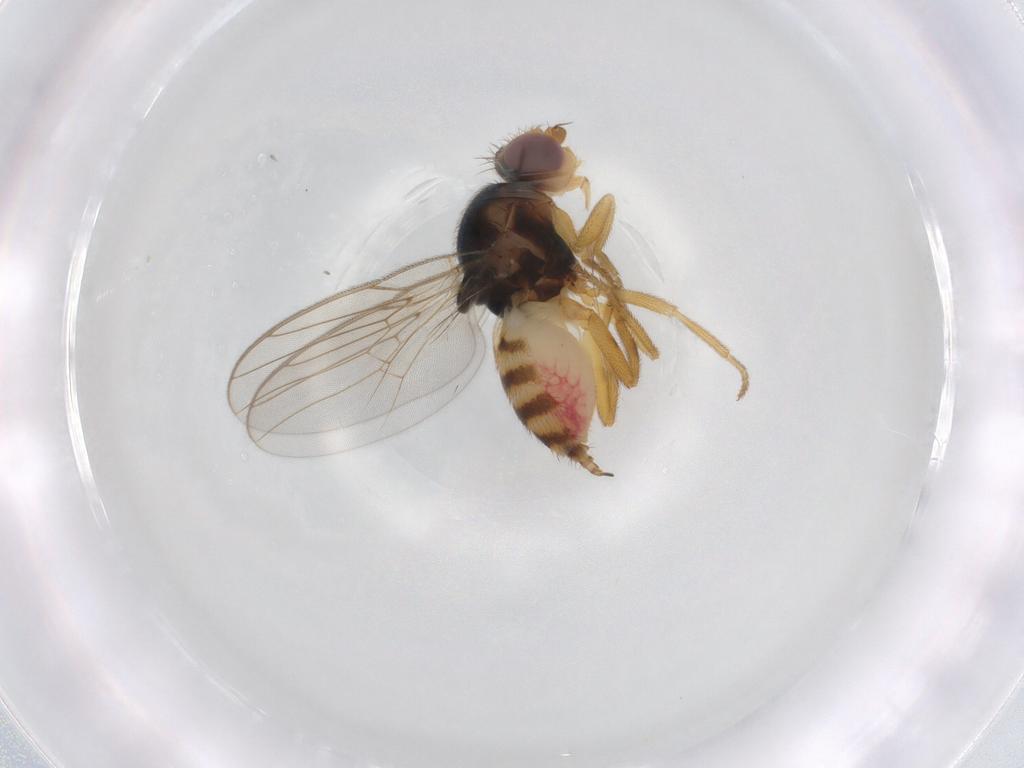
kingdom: Animalia
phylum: Arthropoda
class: Insecta
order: Diptera
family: Chloropidae
